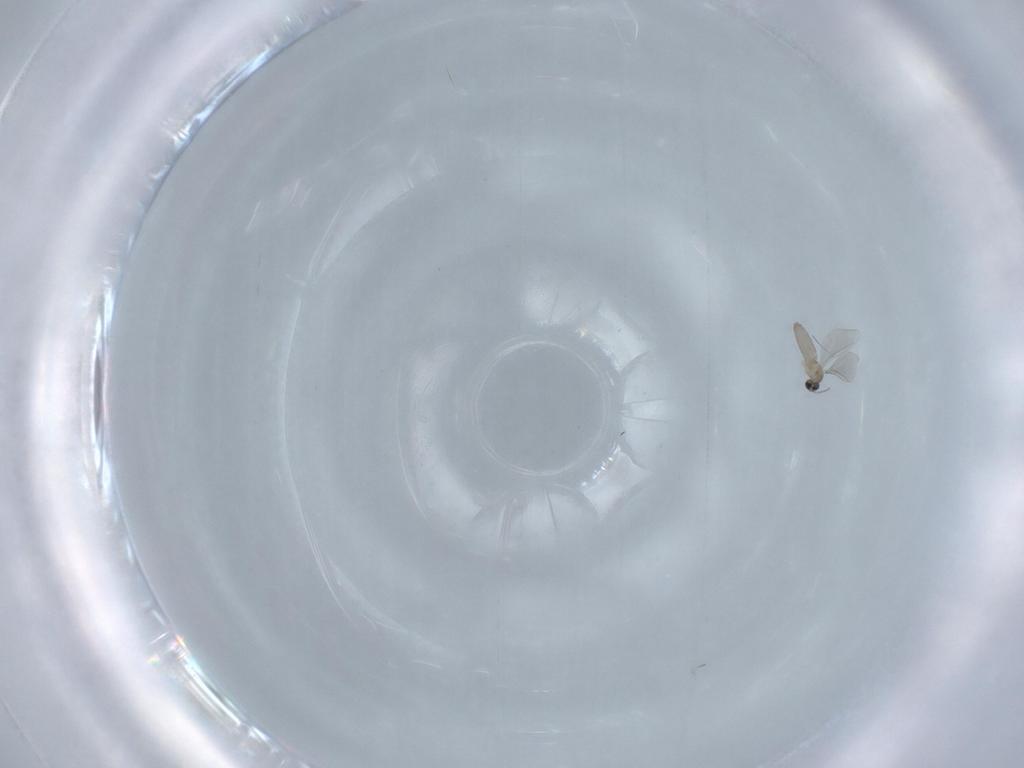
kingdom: Animalia
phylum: Arthropoda
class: Insecta
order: Diptera
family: Cecidomyiidae
